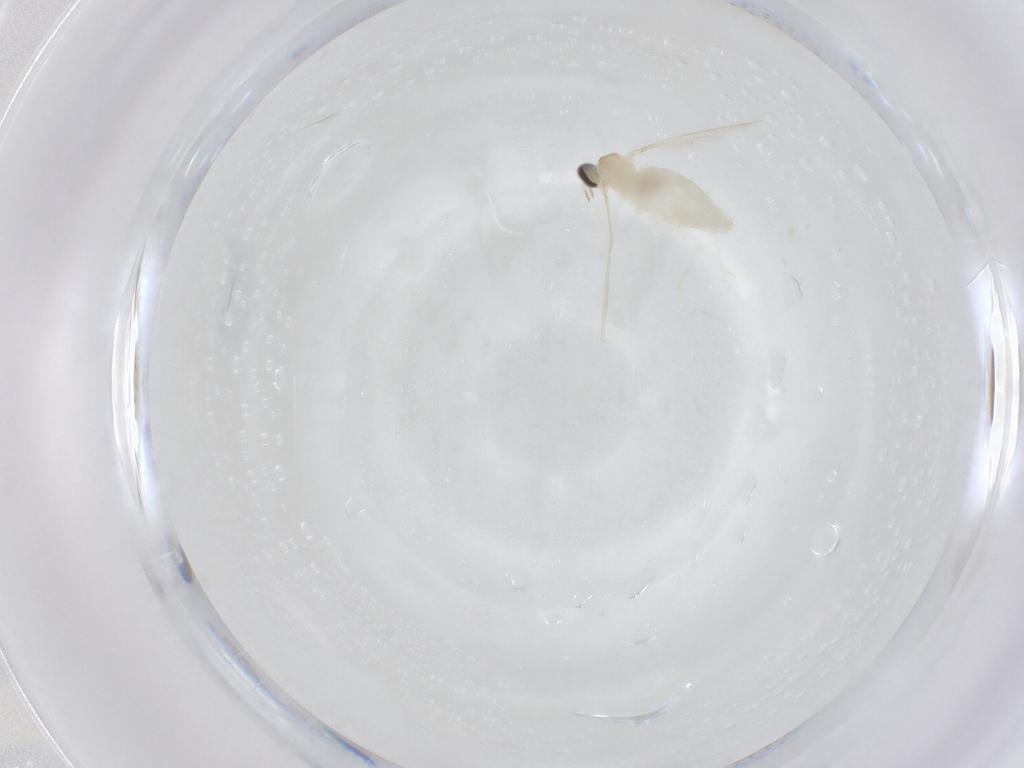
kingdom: Animalia
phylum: Arthropoda
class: Insecta
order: Diptera
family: Cecidomyiidae
